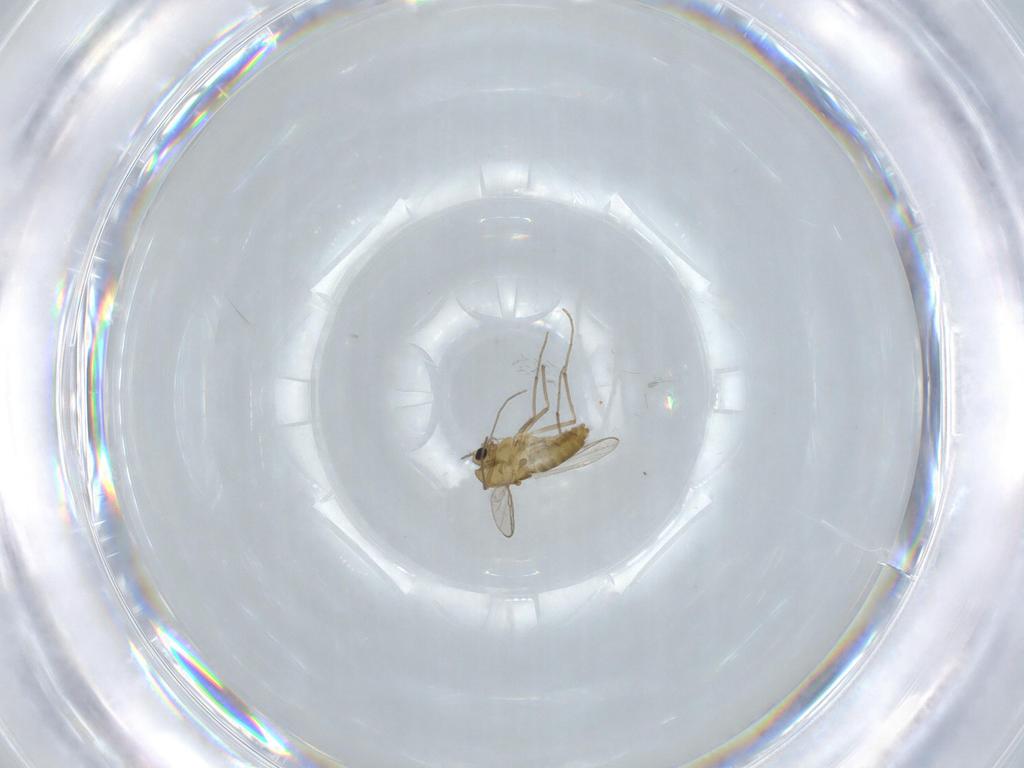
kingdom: Animalia
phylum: Arthropoda
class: Insecta
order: Diptera
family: Chironomidae
